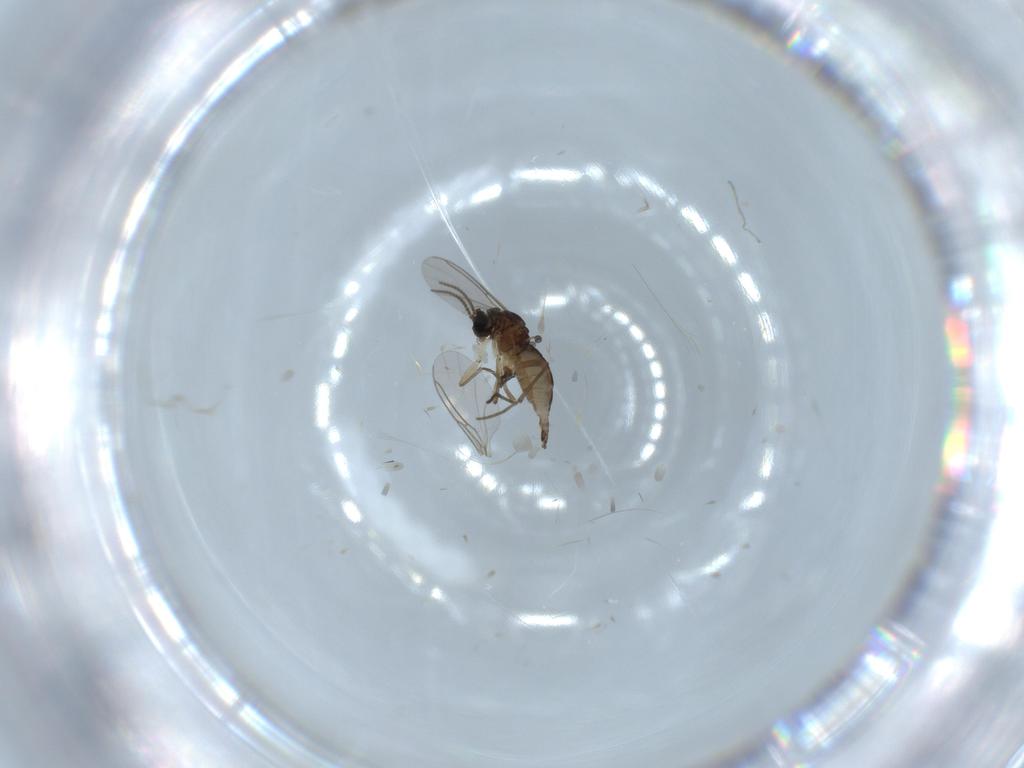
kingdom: Animalia
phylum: Arthropoda
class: Insecta
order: Diptera
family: Sciaridae
